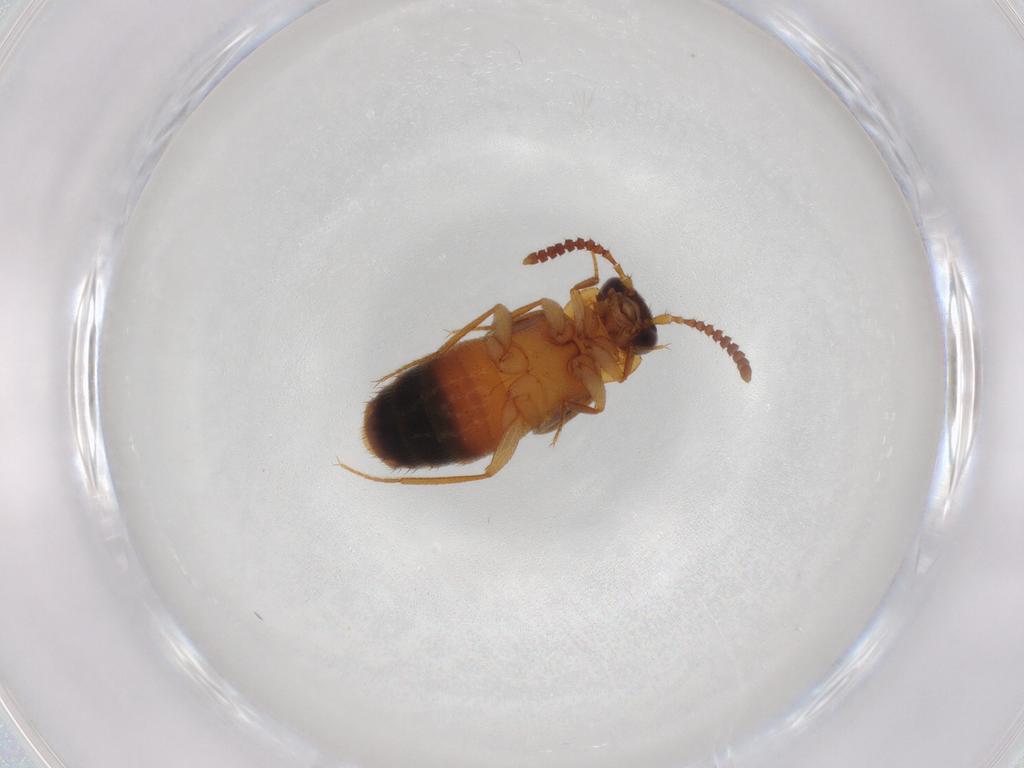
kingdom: Animalia
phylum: Arthropoda
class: Insecta
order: Coleoptera
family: Staphylinidae
